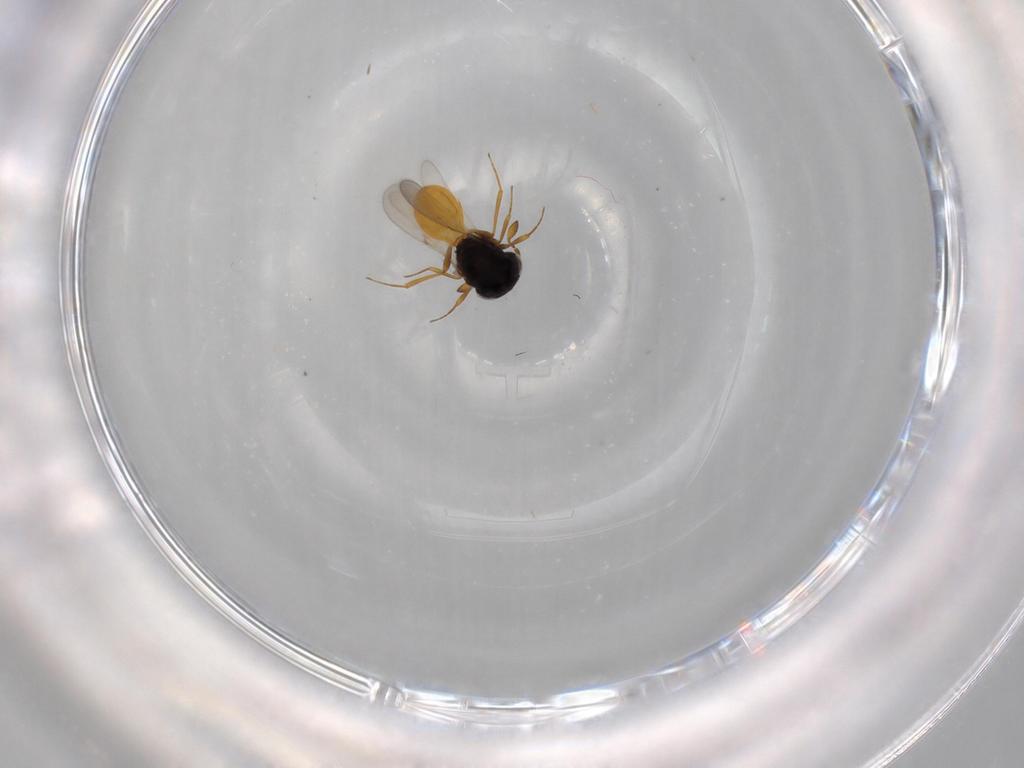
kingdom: Animalia
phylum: Arthropoda
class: Insecta
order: Hymenoptera
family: Scelionidae
